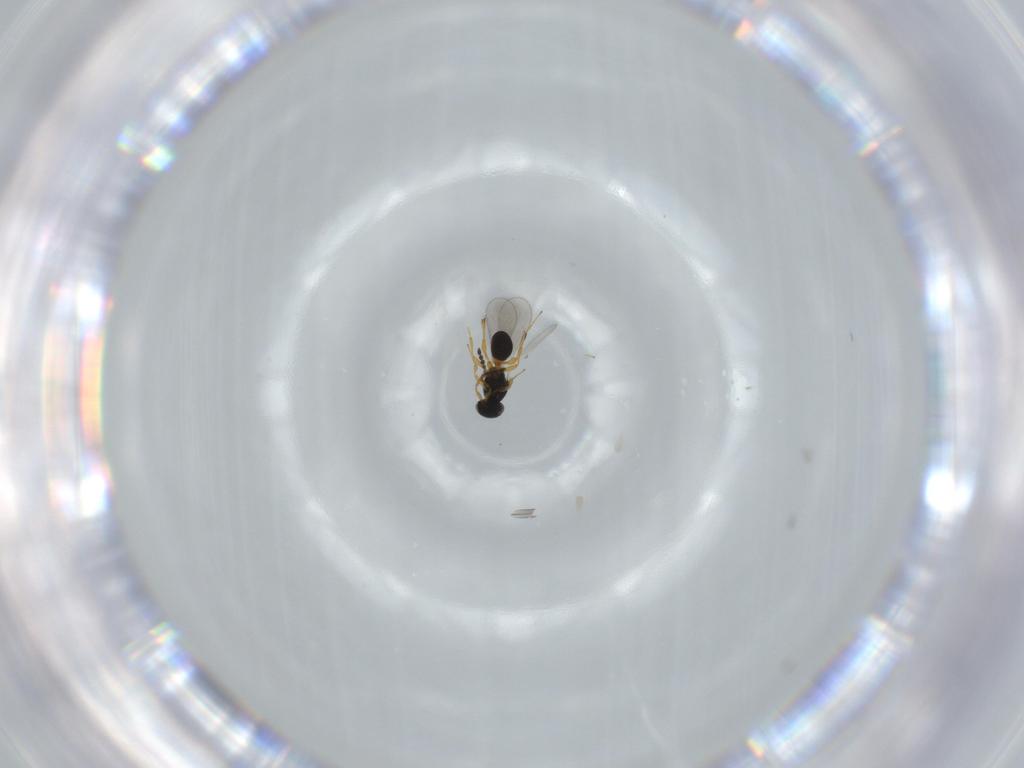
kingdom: Animalia
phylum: Arthropoda
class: Insecta
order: Hymenoptera
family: Platygastridae
